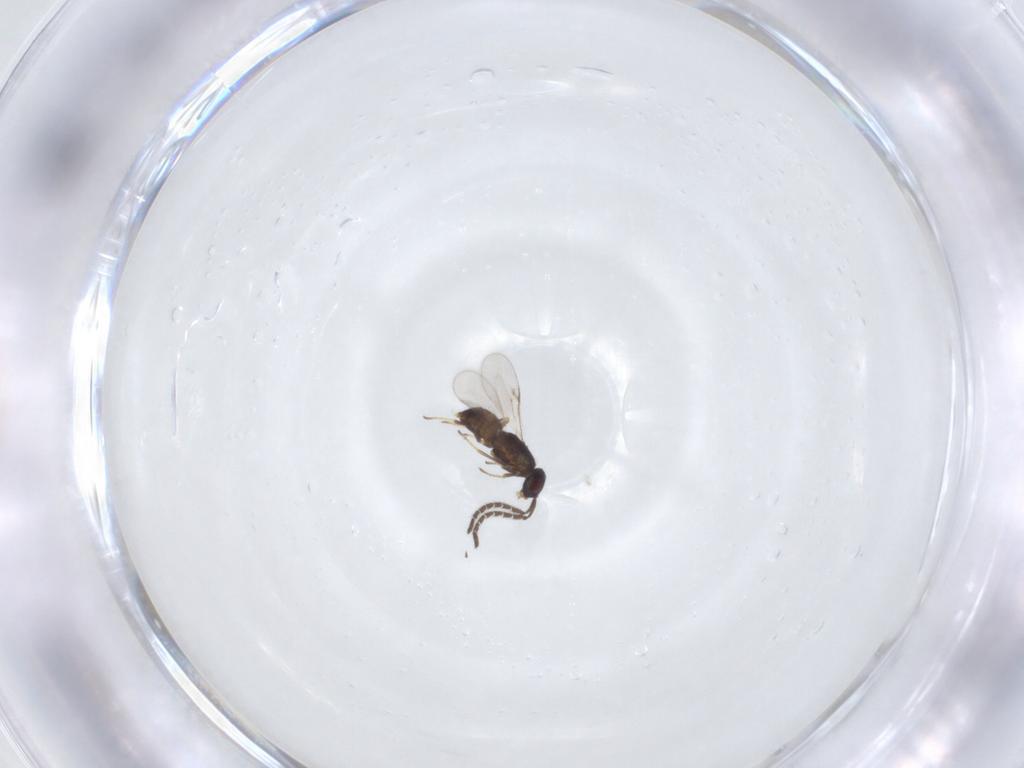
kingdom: Animalia
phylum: Arthropoda
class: Insecta
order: Hymenoptera
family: Encyrtidae
